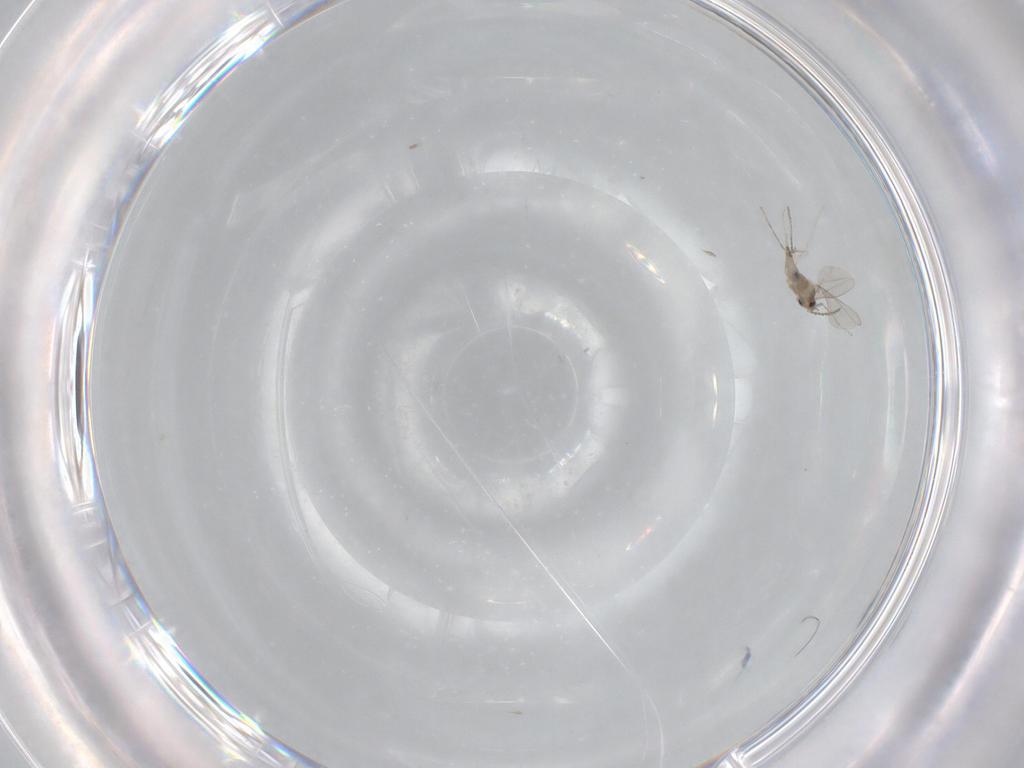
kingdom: Animalia
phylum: Arthropoda
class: Insecta
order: Diptera
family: Cecidomyiidae
